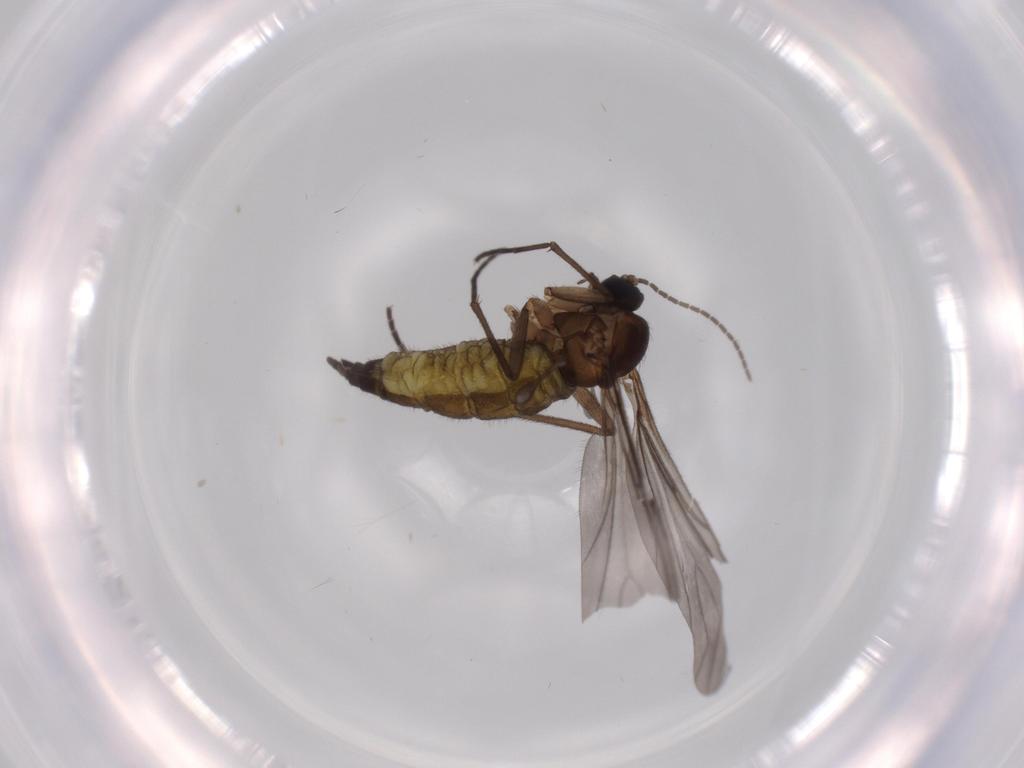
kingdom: Animalia
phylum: Arthropoda
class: Insecta
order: Diptera
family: Sciaridae
